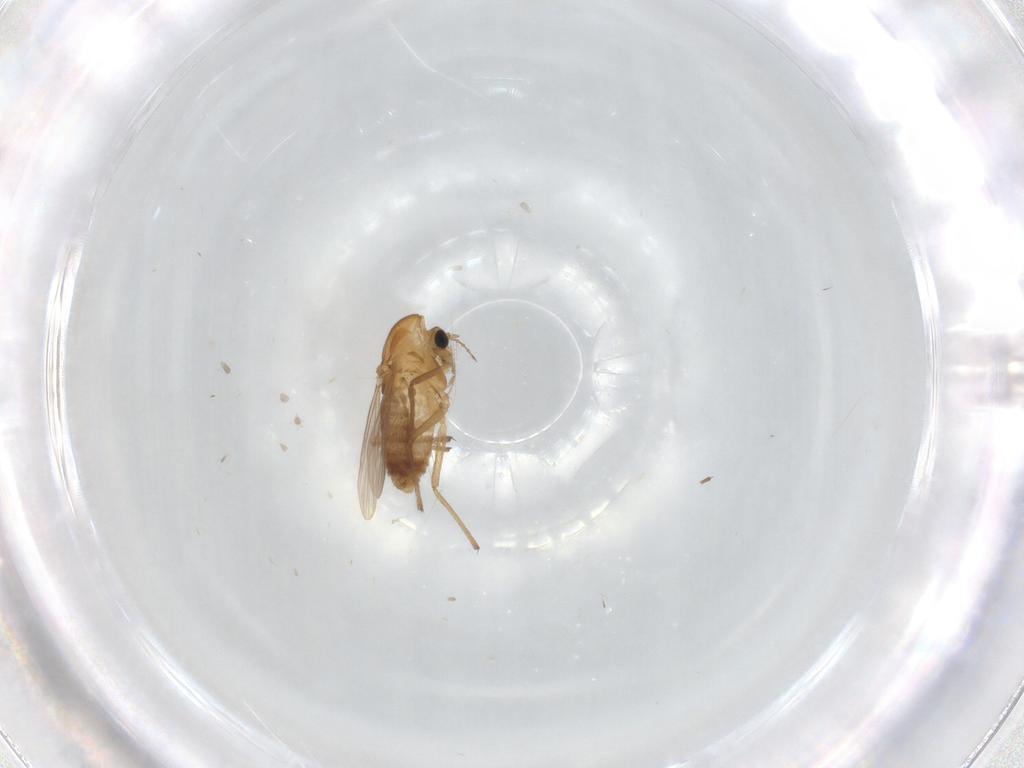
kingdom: Animalia
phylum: Arthropoda
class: Insecta
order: Diptera
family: Chironomidae
